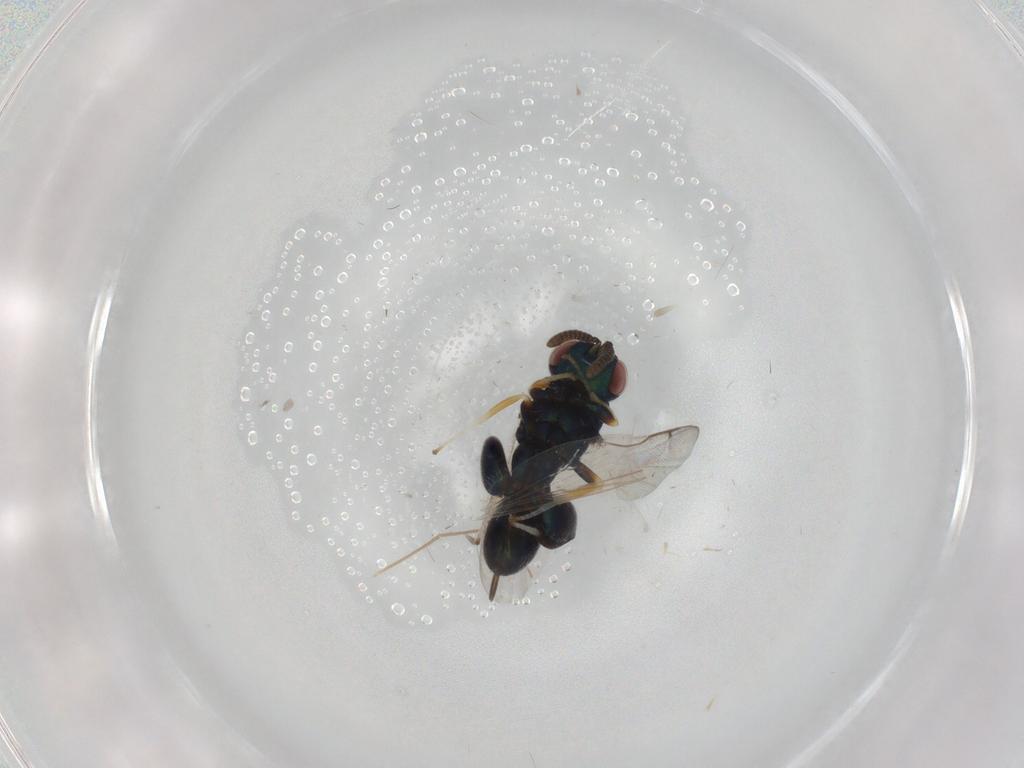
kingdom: Animalia
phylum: Arthropoda
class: Insecta
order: Hymenoptera
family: Torymidae
